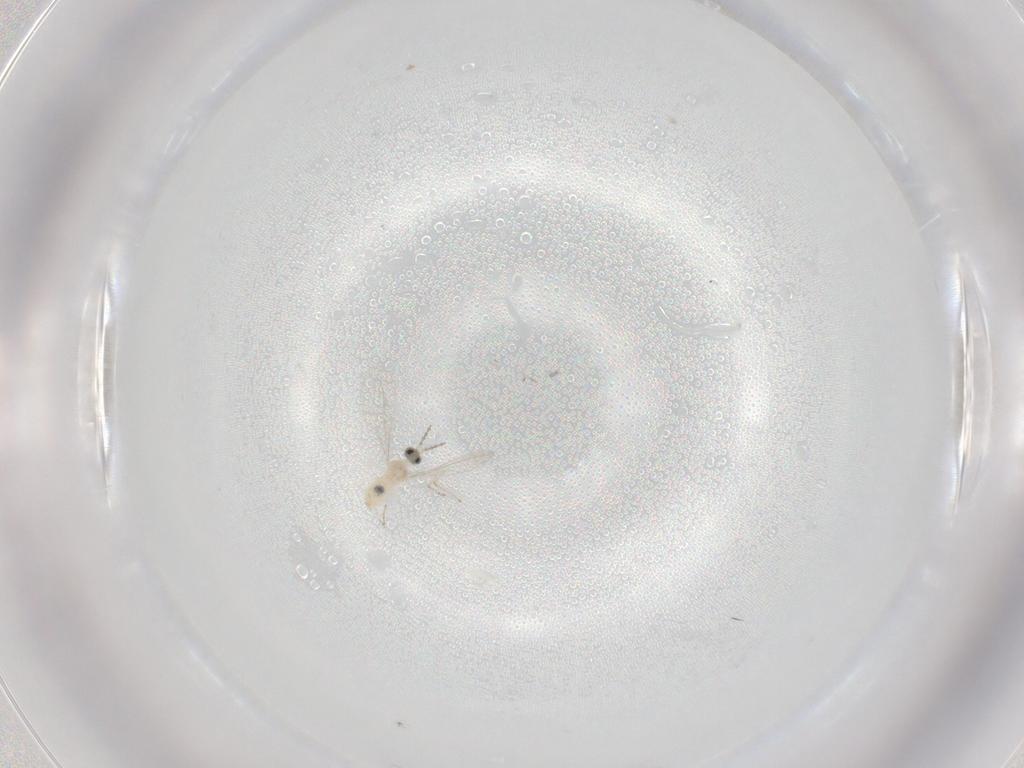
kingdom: Animalia
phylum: Arthropoda
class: Insecta
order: Diptera
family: Cecidomyiidae
